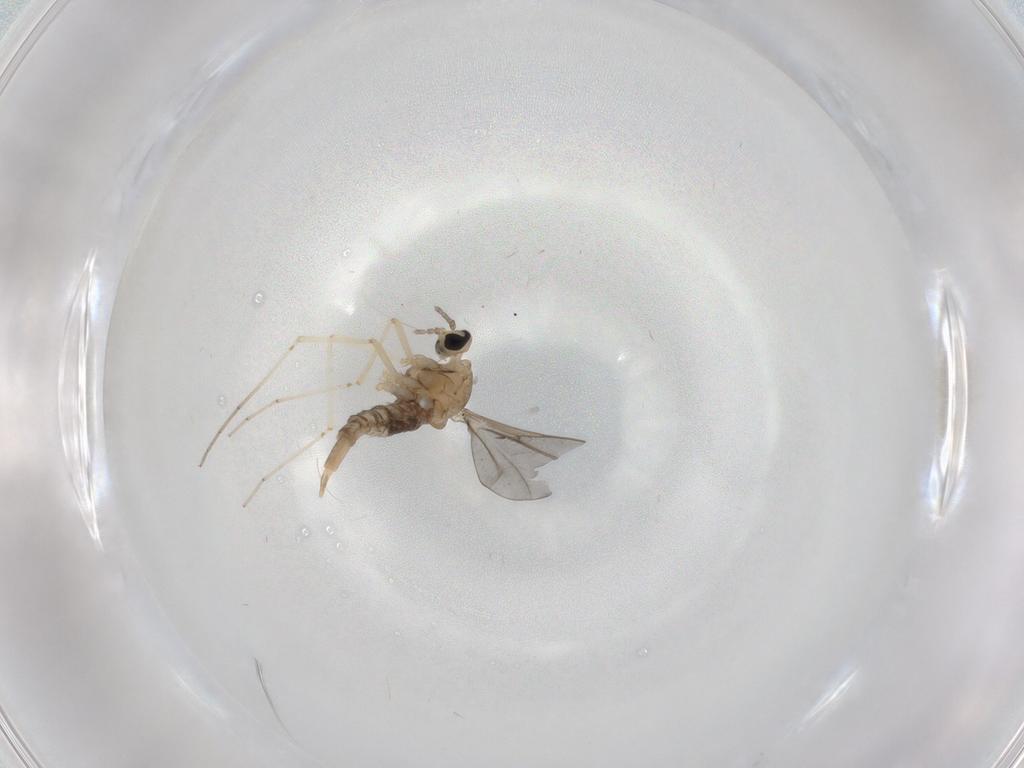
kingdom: Animalia
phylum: Arthropoda
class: Insecta
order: Diptera
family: Cecidomyiidae
